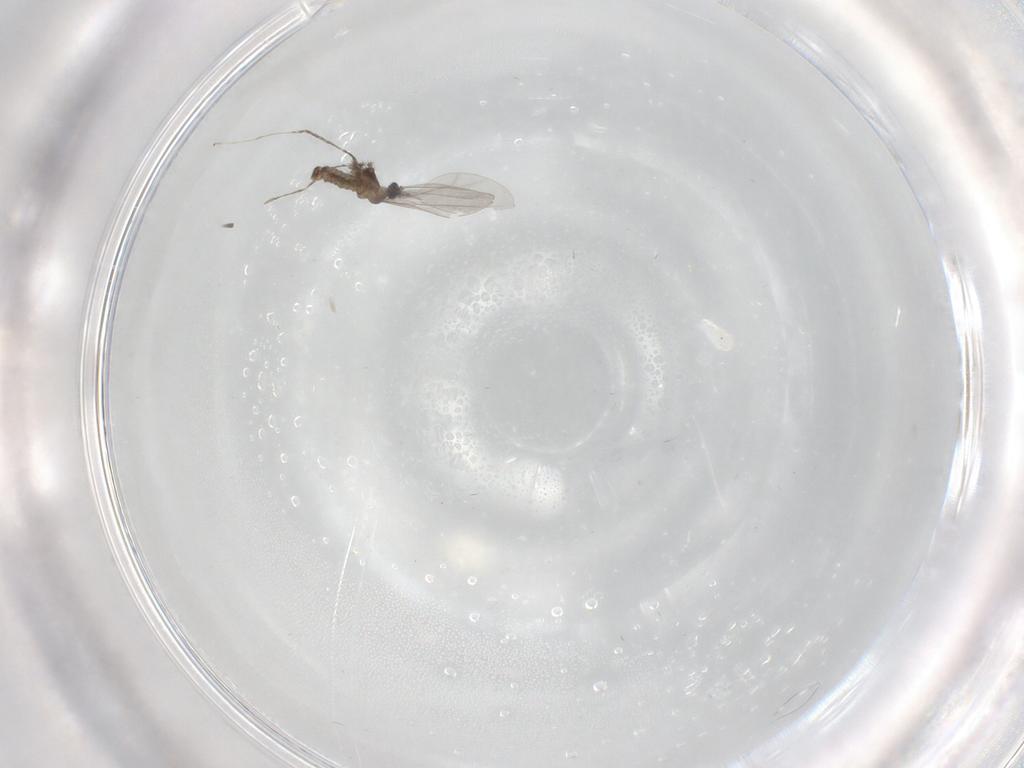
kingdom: Animalia
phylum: Arthropoda
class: Insecta
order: Diptera
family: Cecidomyiidae
